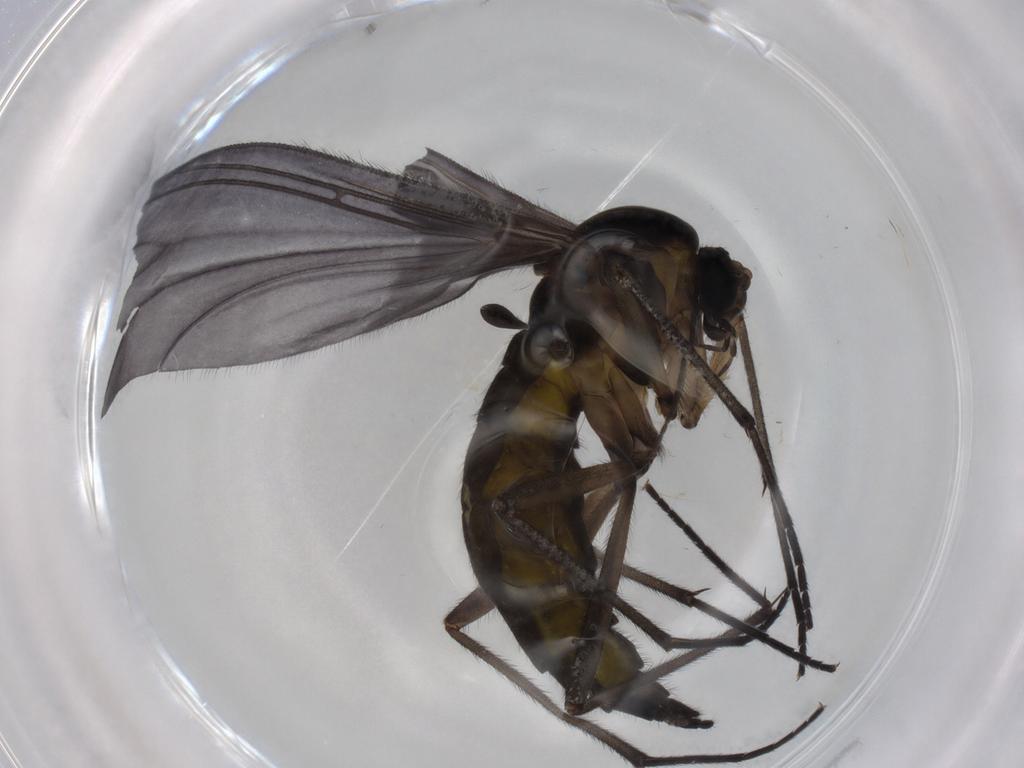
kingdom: Animalia
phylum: Arthropoda
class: Insecta
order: Diptera
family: Sciaridae
